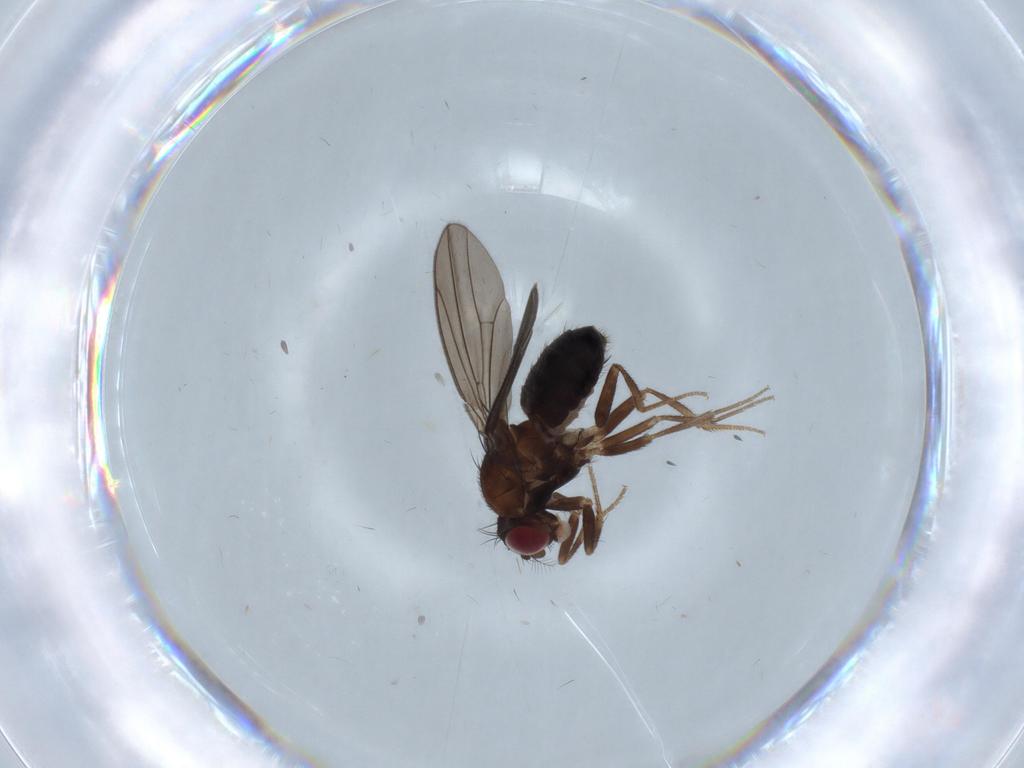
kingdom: Animalia
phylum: Arthropoda
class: Insecta
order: Diptera
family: Drosophilidae
